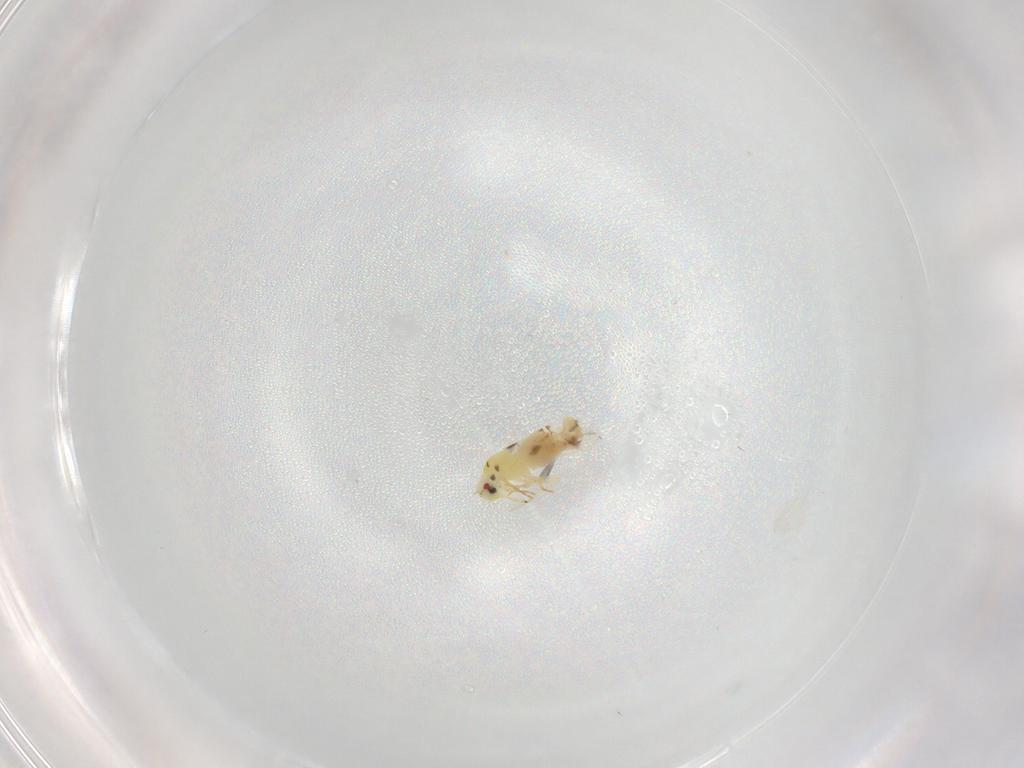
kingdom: Animalia
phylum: Arthropoda
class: Insecta
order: Hemiptera
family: Aleyrodidae
